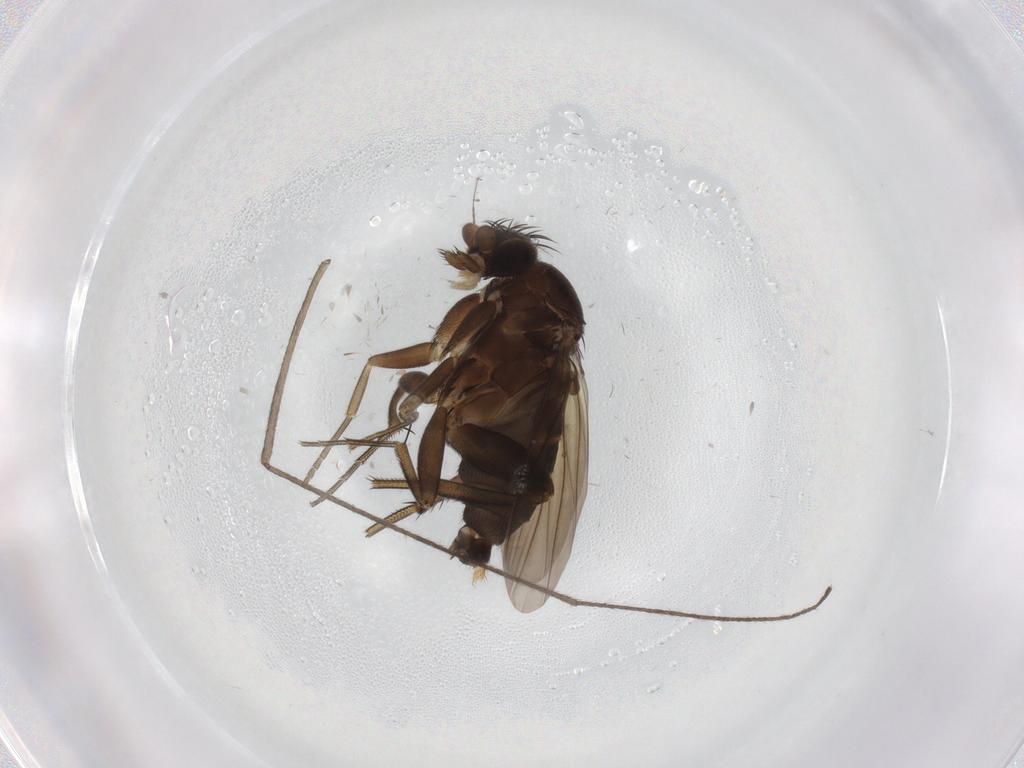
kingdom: Animalia
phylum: Arthropoda
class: Insecta
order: Diptera
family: Phoridae
